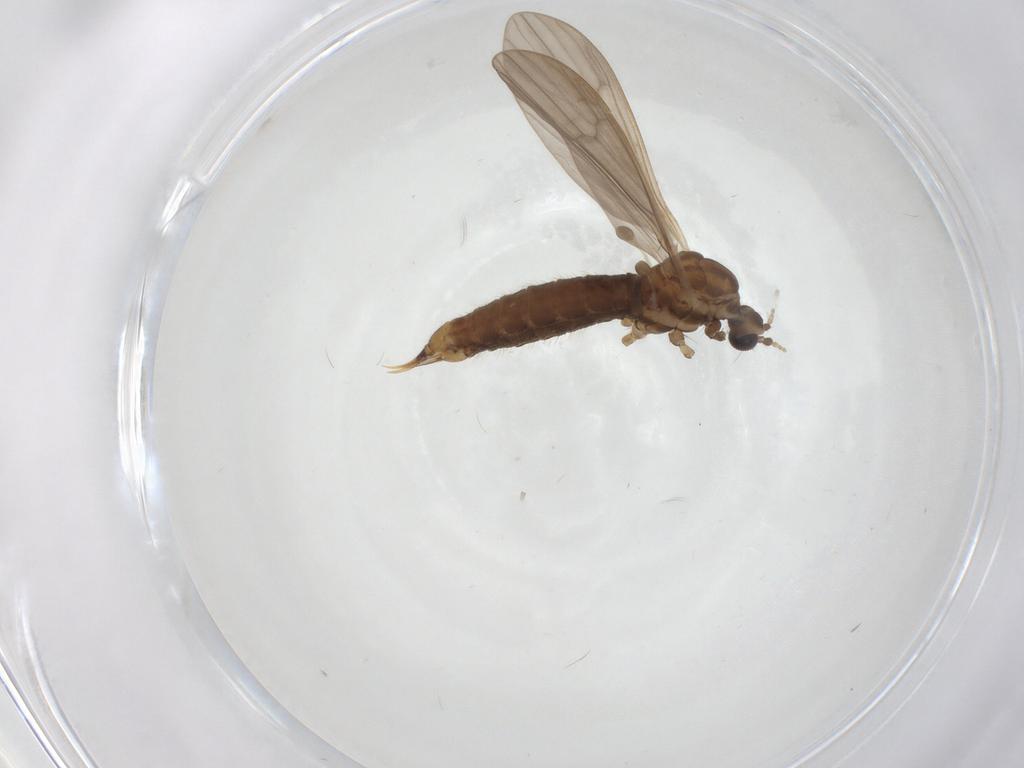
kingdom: Animalia
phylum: Arthropoda
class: Insecta
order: Diptera
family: Limoniidae
